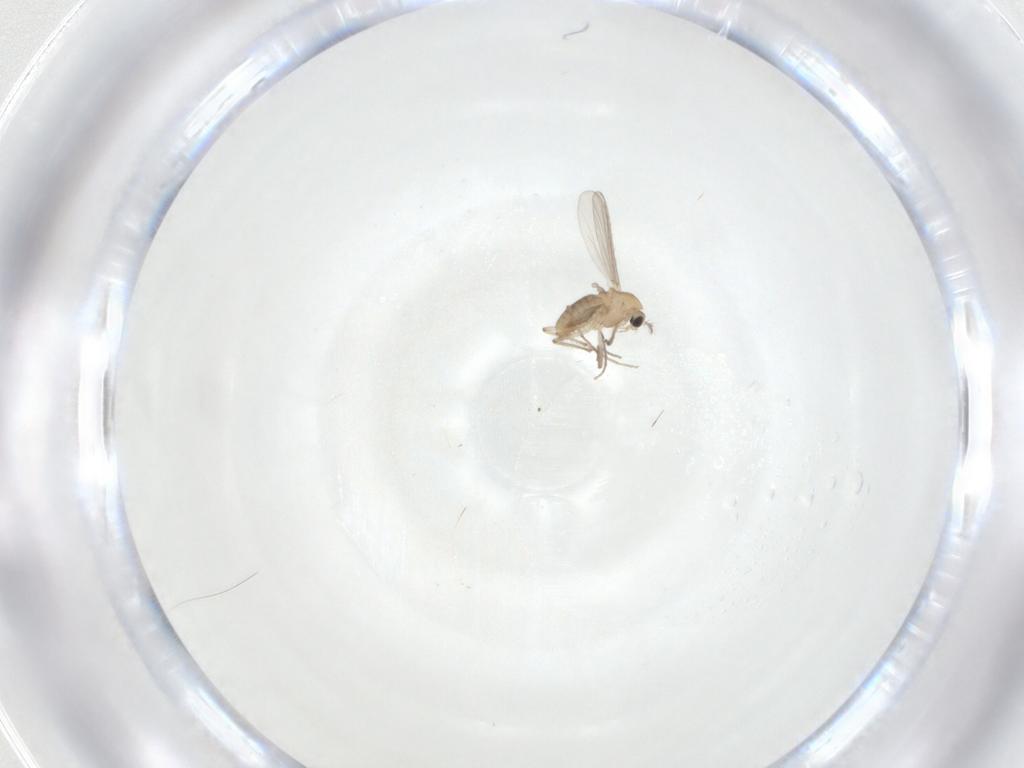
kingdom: Animalia
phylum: Arthropoda
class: Insecta
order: Diptera
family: Chironomidae
